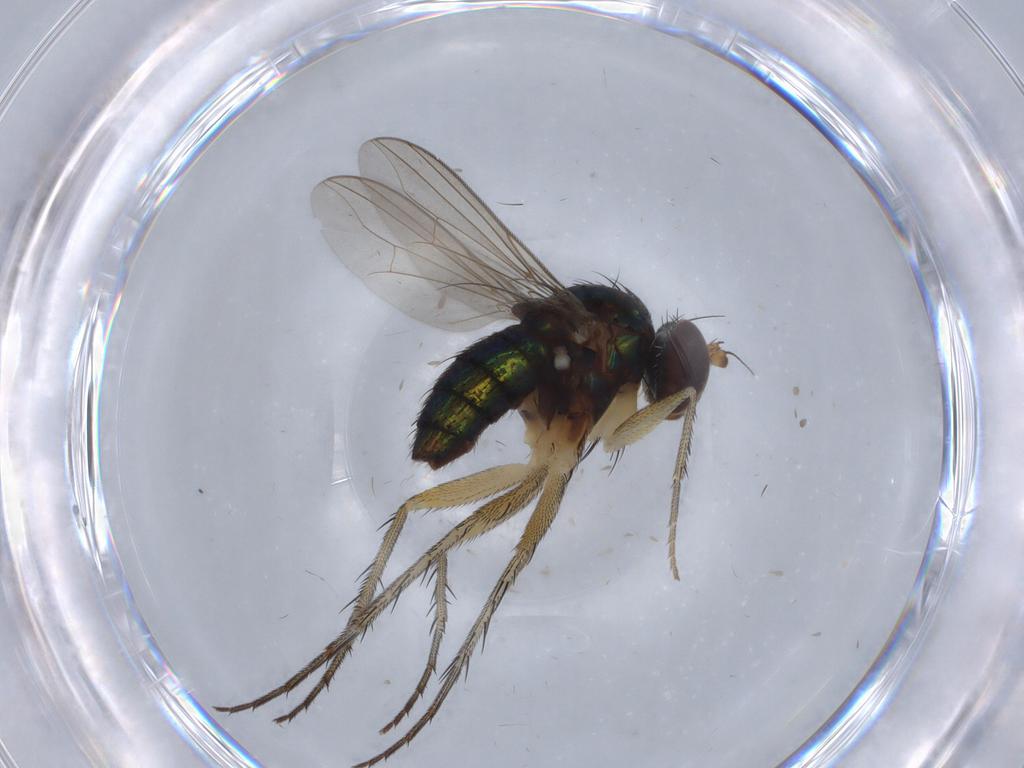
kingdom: Animalia
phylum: Arthropoda
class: Insecta
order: Diptera
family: Dolichopodidae
